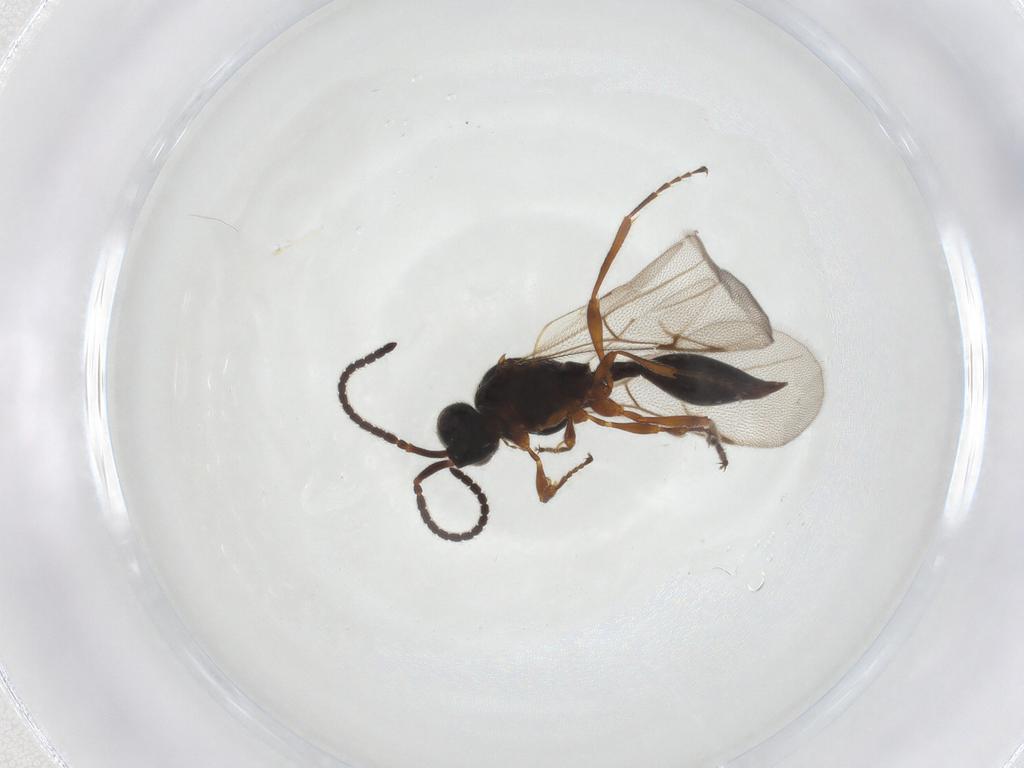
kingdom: Animalia
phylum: Arthropoda
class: Insecta
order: Hymenoptera
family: Diapriidae
